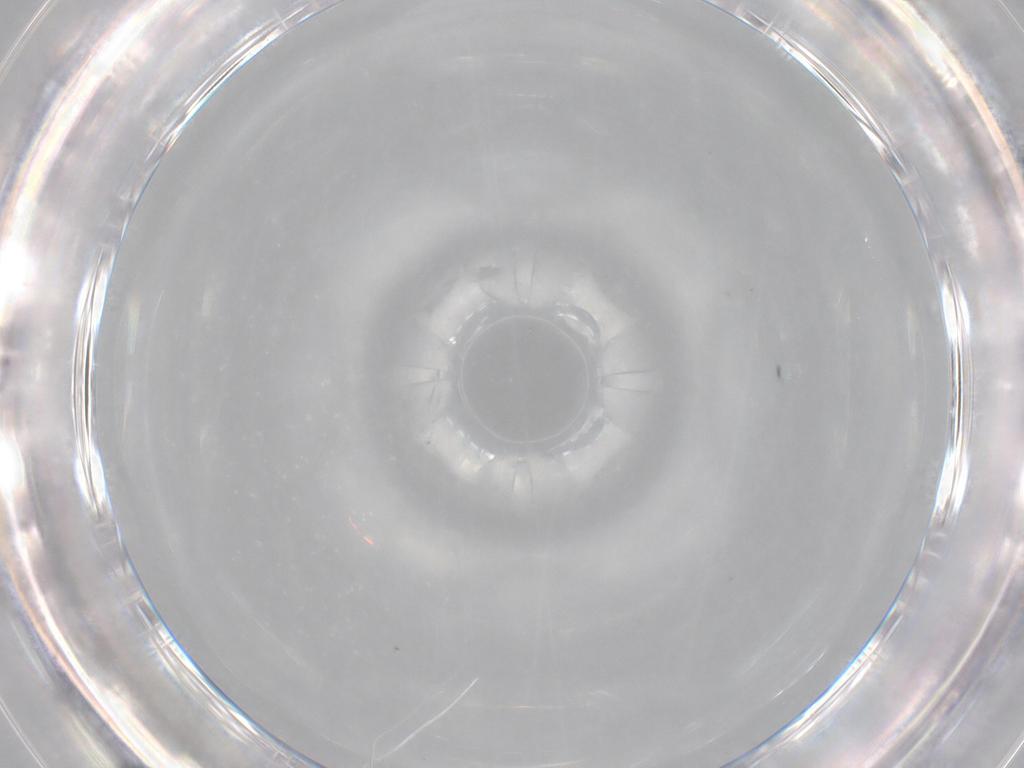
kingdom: Animalia
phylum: Arthropoda
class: Insecta
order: Diptera
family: Cecidomyiidae
